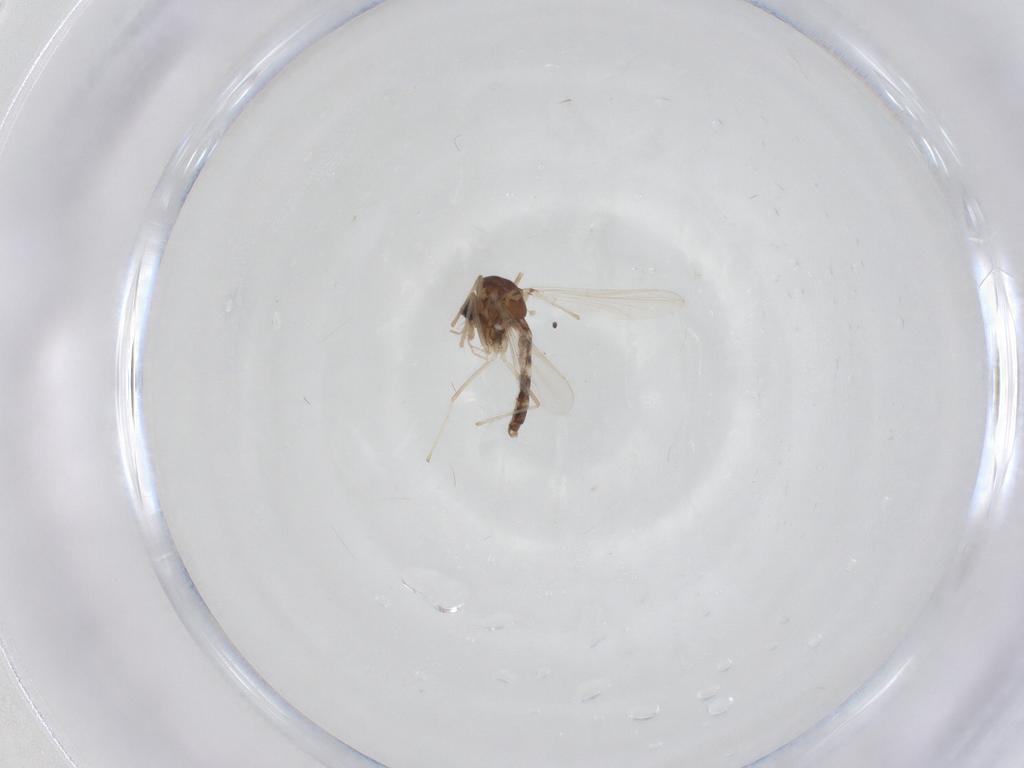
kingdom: Animalia
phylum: Arthropoda
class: Insecta
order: Diptera
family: Chironomidae
